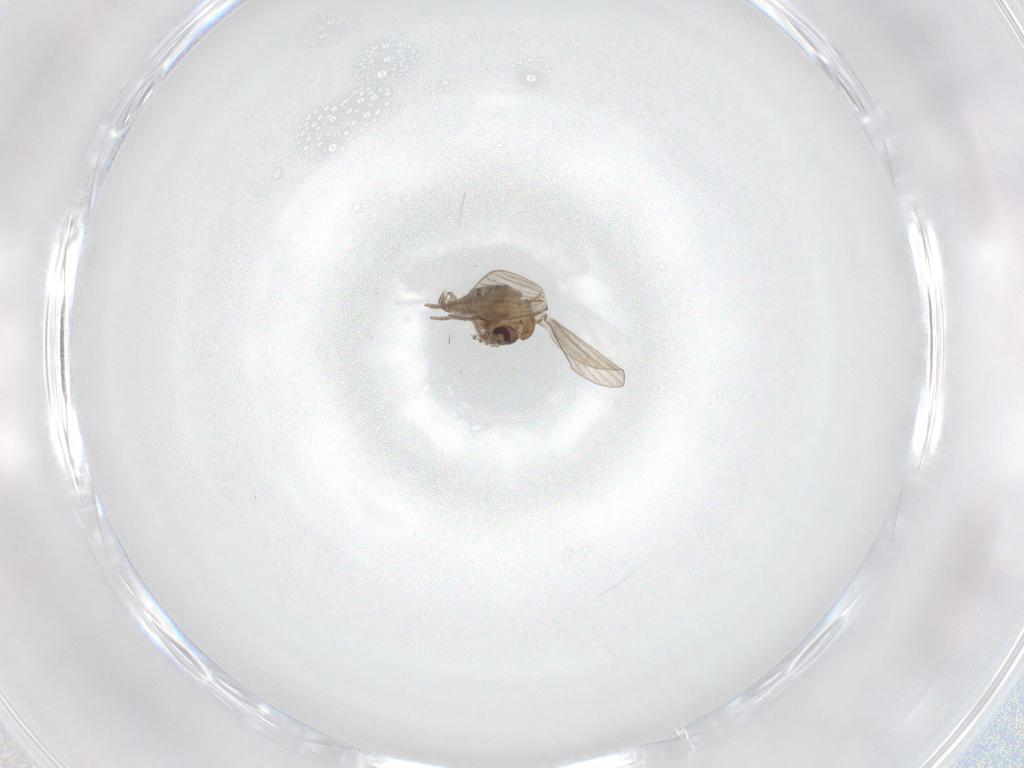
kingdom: Animalia
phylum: Arthropoda
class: Insecta
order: Diptera
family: Psychodidae
